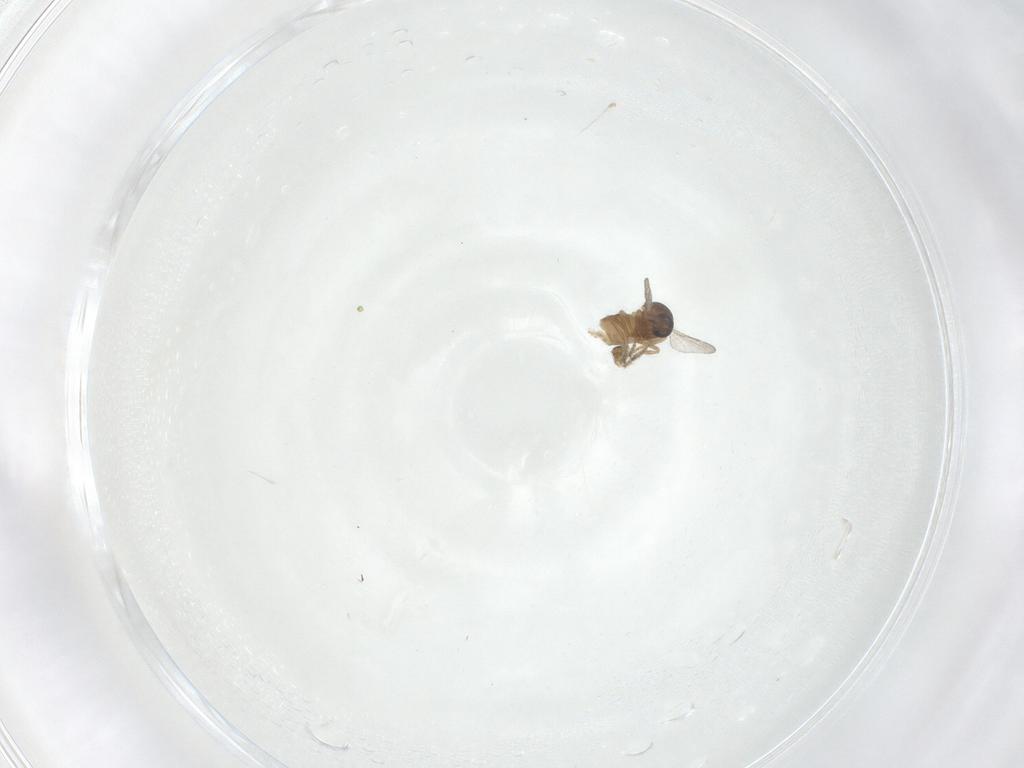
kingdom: Animalia
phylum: Arthropoda
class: Insecta
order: Diptera
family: Ceratopogonidae
